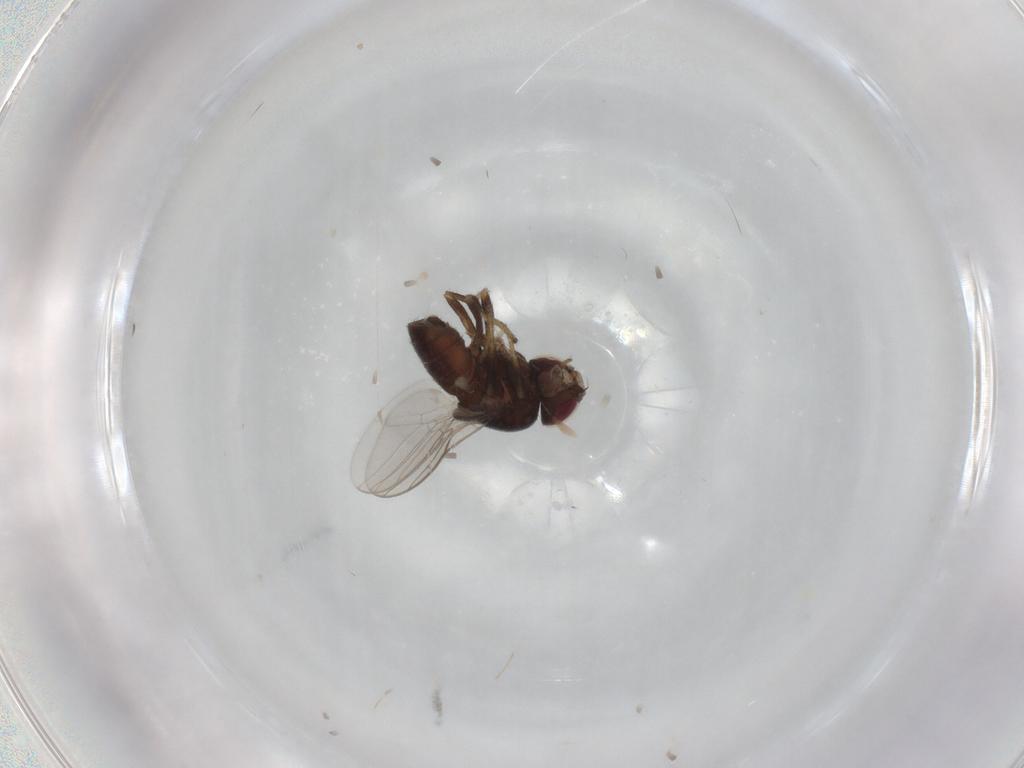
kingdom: Animalia
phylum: Arthropoda
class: Insecta
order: Diptera
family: Chloropidae
